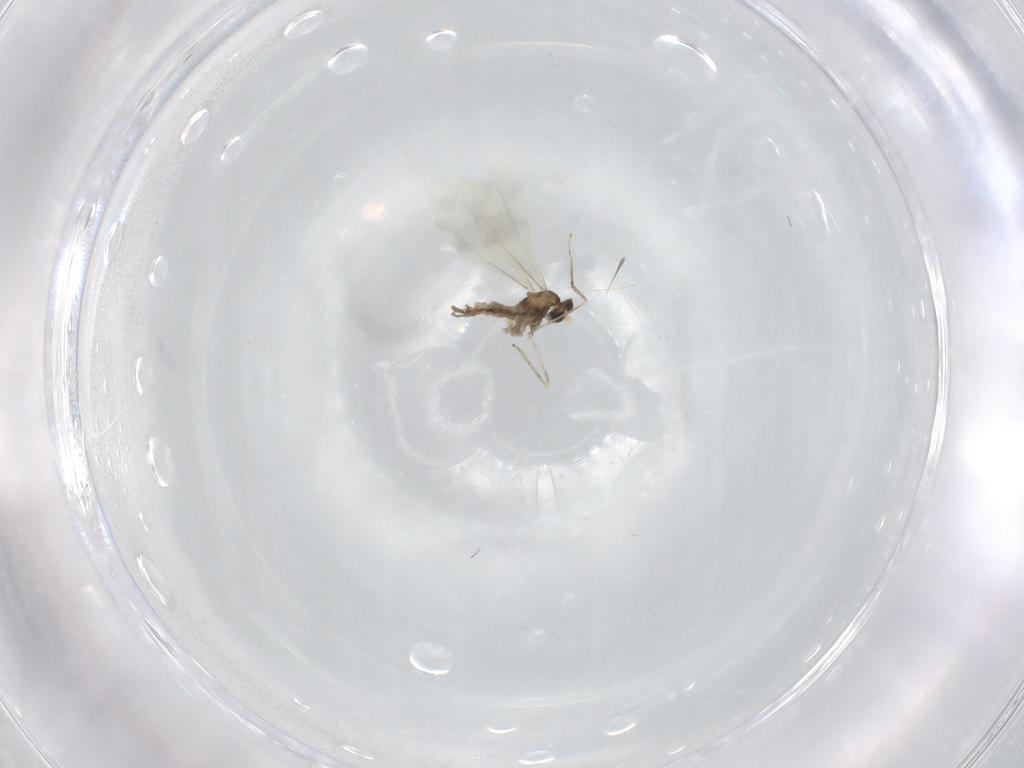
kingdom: Animalia
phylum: Arthropoda
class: Insecta
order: Diptera
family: Cecidomyiidae
